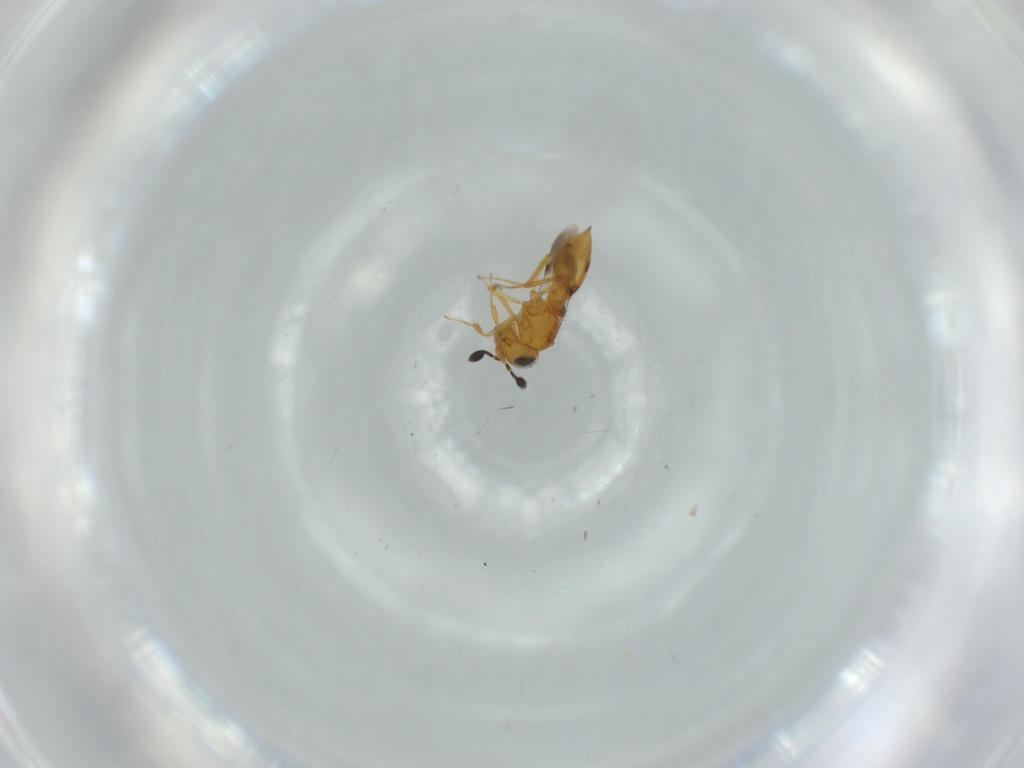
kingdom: Animalia
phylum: Arthropoda
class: Insecta
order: Hymenoptera
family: Scelionidae
